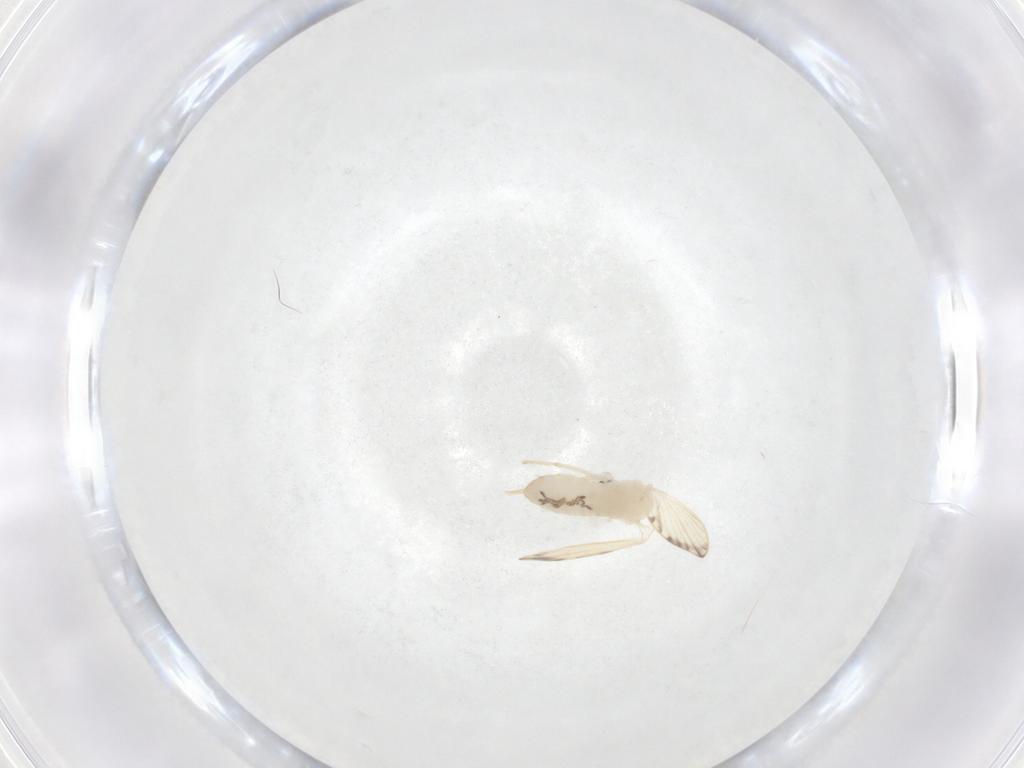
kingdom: Animalia
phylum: Arthropoda
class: Insecta
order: Diptera
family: Psychodidae
